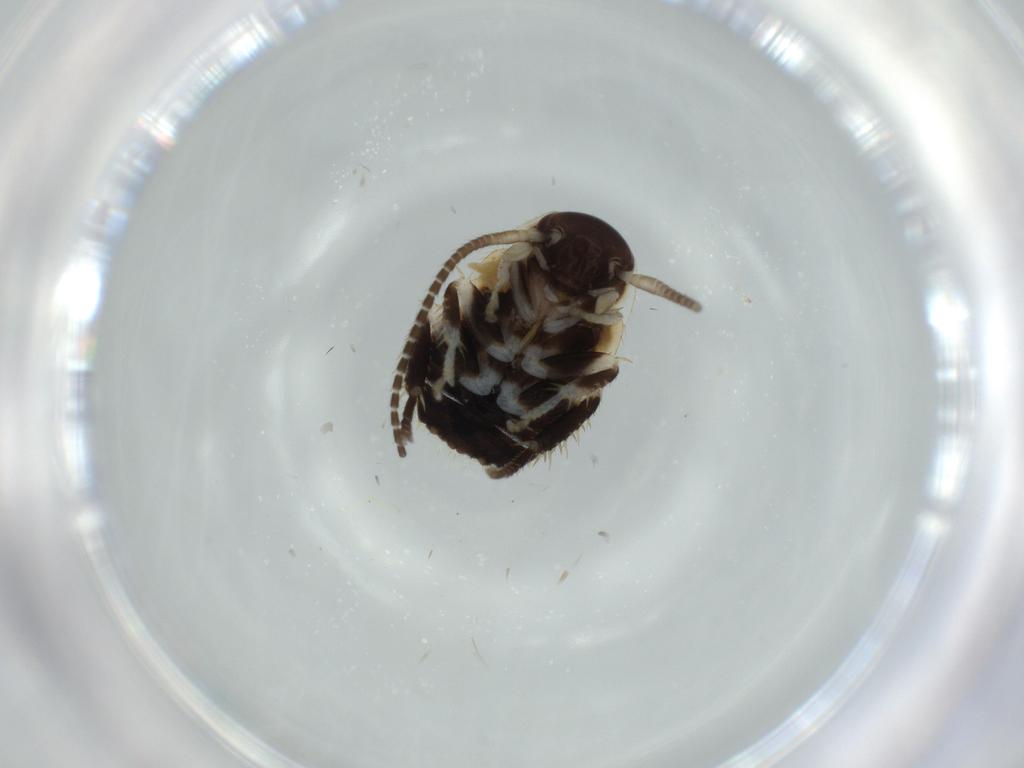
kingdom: Animalia
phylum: Arthropoda
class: Insecta
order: Blattodea
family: Ectobiidae
